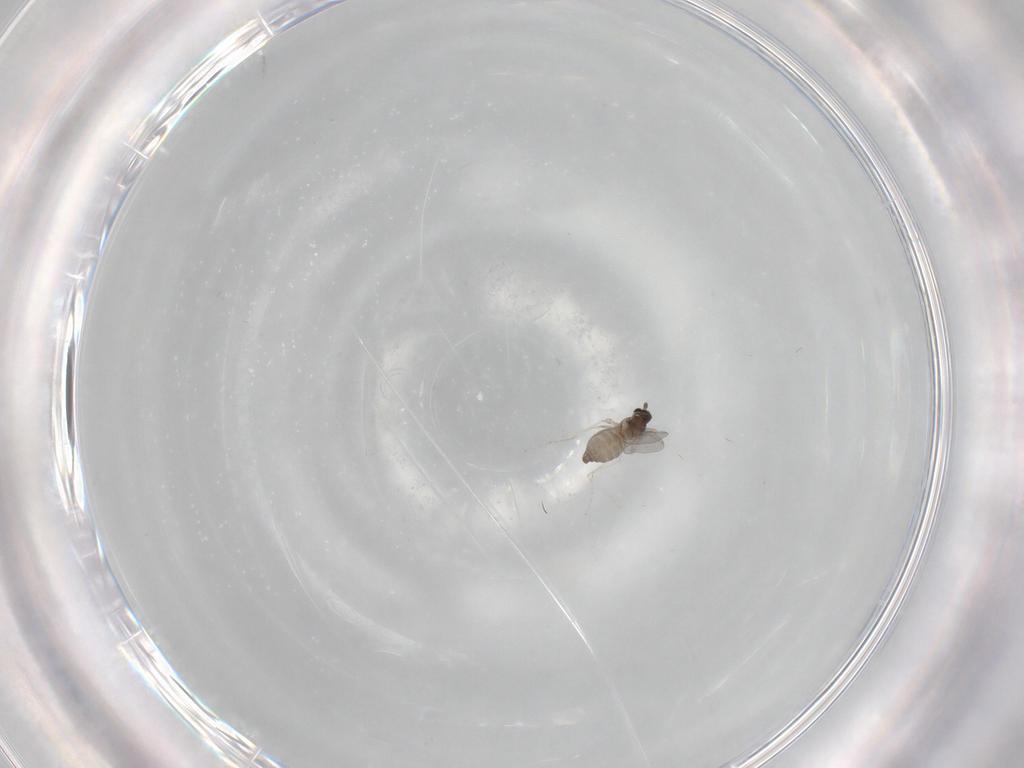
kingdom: Animalia
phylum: Arthropoda
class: Insecta
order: Diptera
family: Cecidomyiidae
